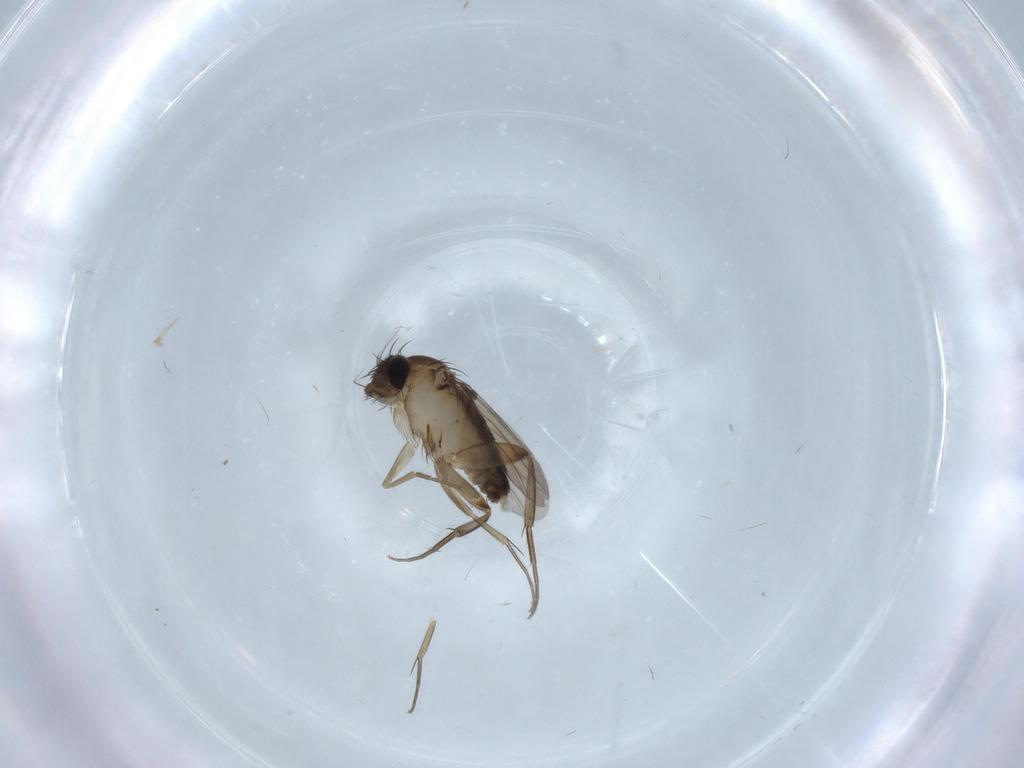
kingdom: Animalia
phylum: Arthropoda
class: Insecta
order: Diptera
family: Phoridae
